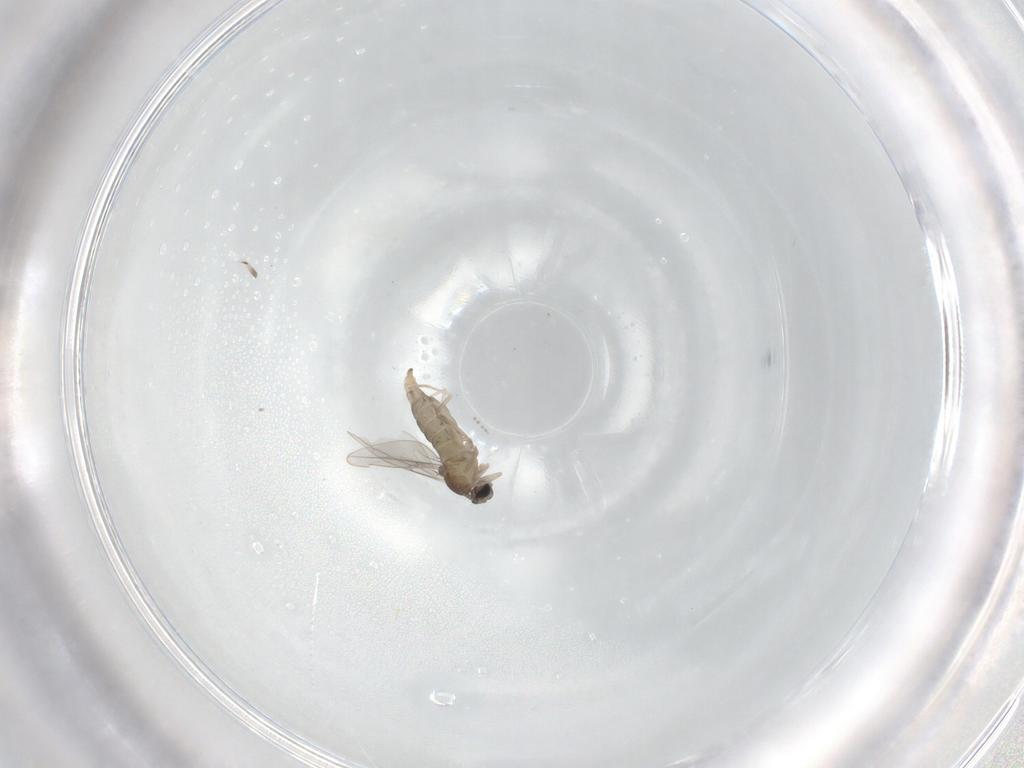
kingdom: Animalia
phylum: Arthropoda
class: Insecta
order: Diptera
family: Cecidomyiidae
